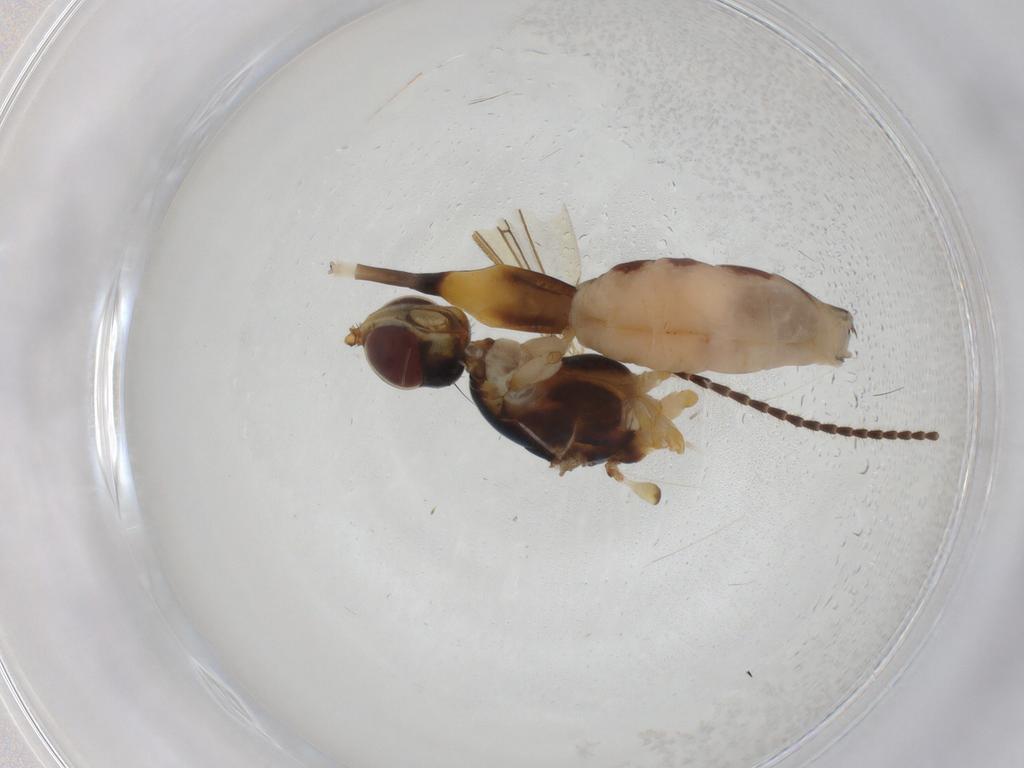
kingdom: Animalia
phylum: Arthropoda
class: Insecta
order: Diptera
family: Micropezidae
